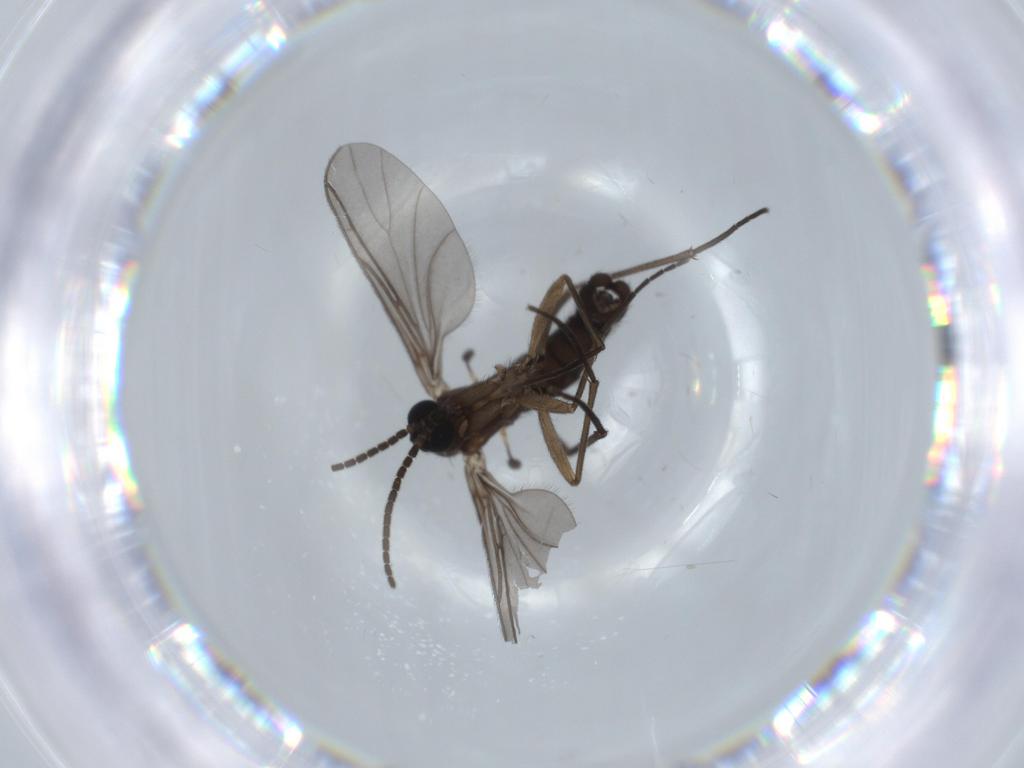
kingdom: Animalia
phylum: Arthropoda
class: Insecta
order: Diptera
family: Sciaridae
